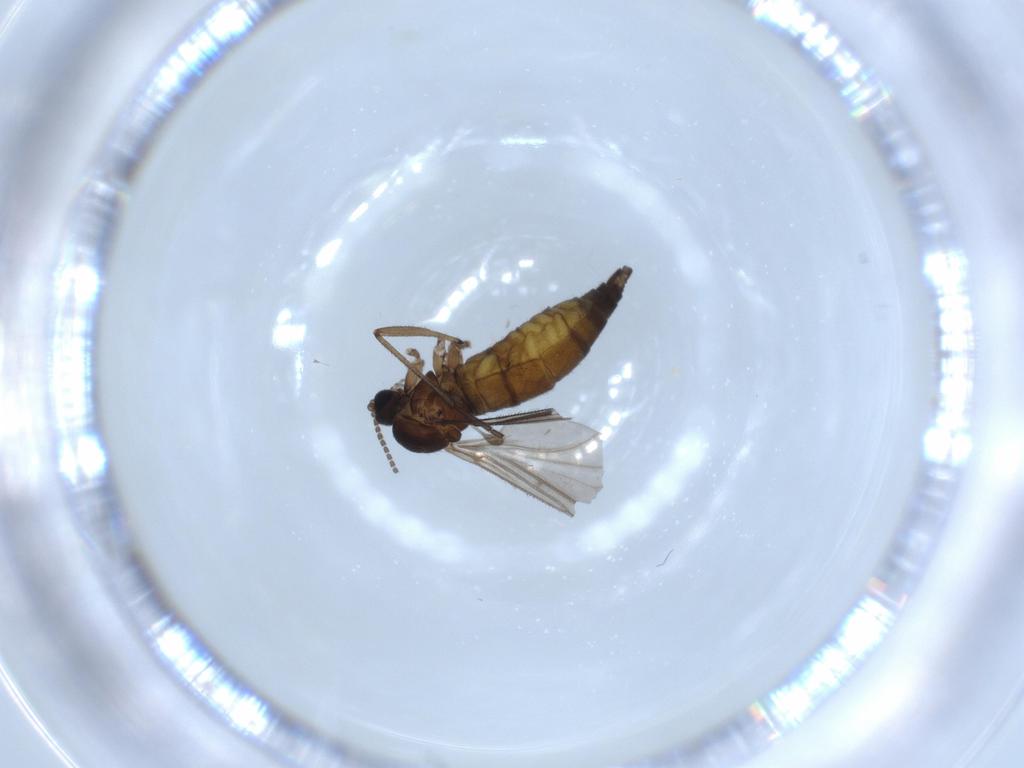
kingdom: Animalia
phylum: Arthropoda
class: Insecta
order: Diptera
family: Sciaridae
